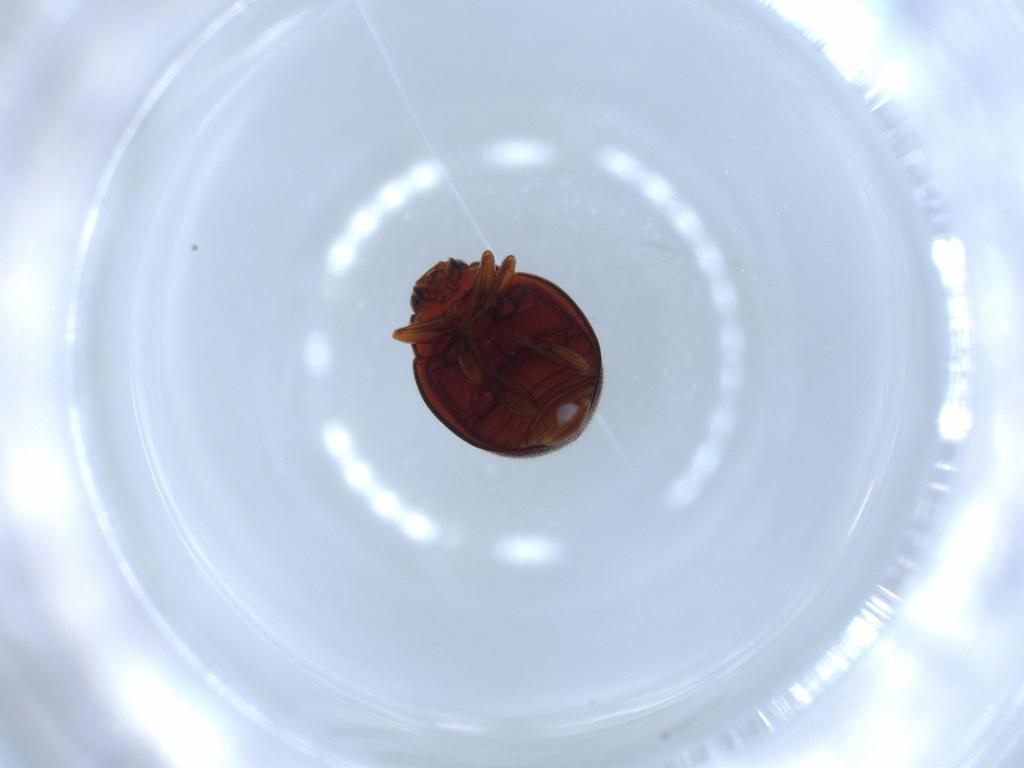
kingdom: Animalia
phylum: Arthropoda
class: Insecta
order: Coleoptera
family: Coccinellidae
